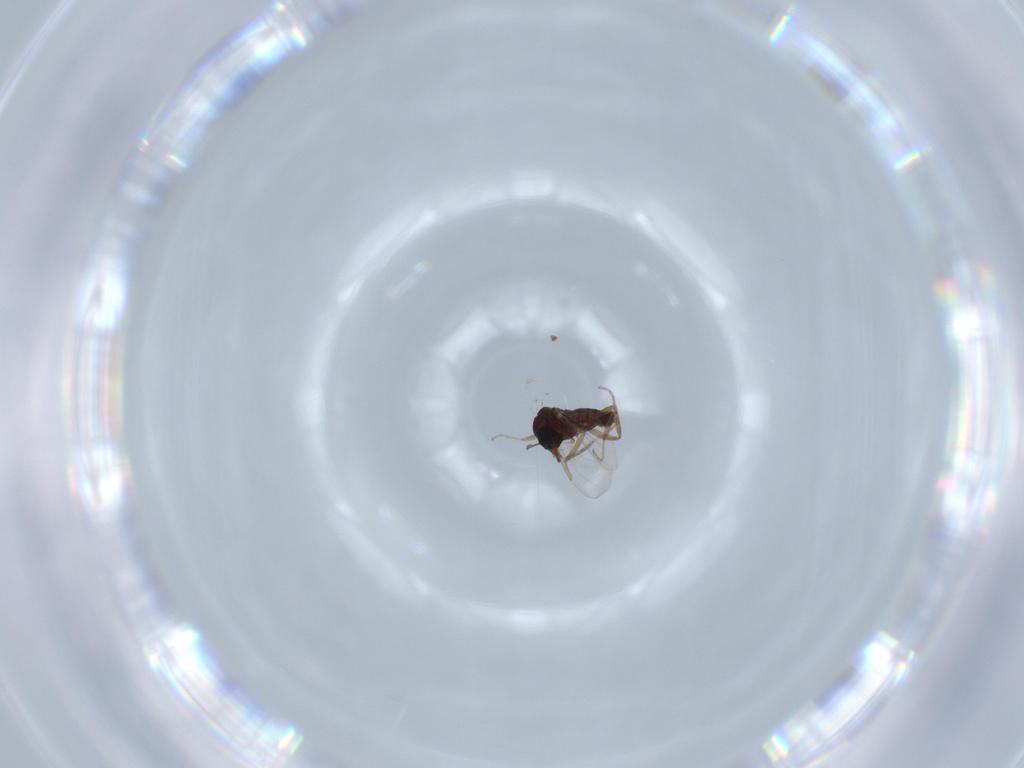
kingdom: Animalia
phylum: Arthropoda
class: Insecta
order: Diptera
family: Ceratopogonidae
